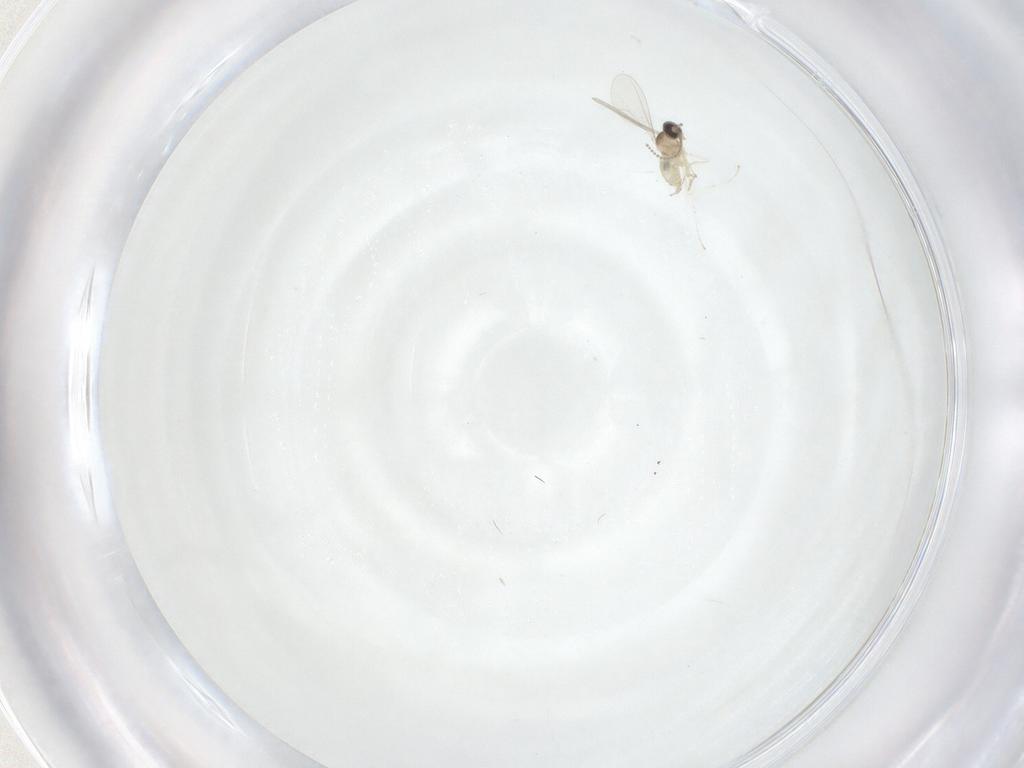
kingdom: Animalia
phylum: Arthropoda
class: Insecta
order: Diptera
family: Cecidomyiidae
